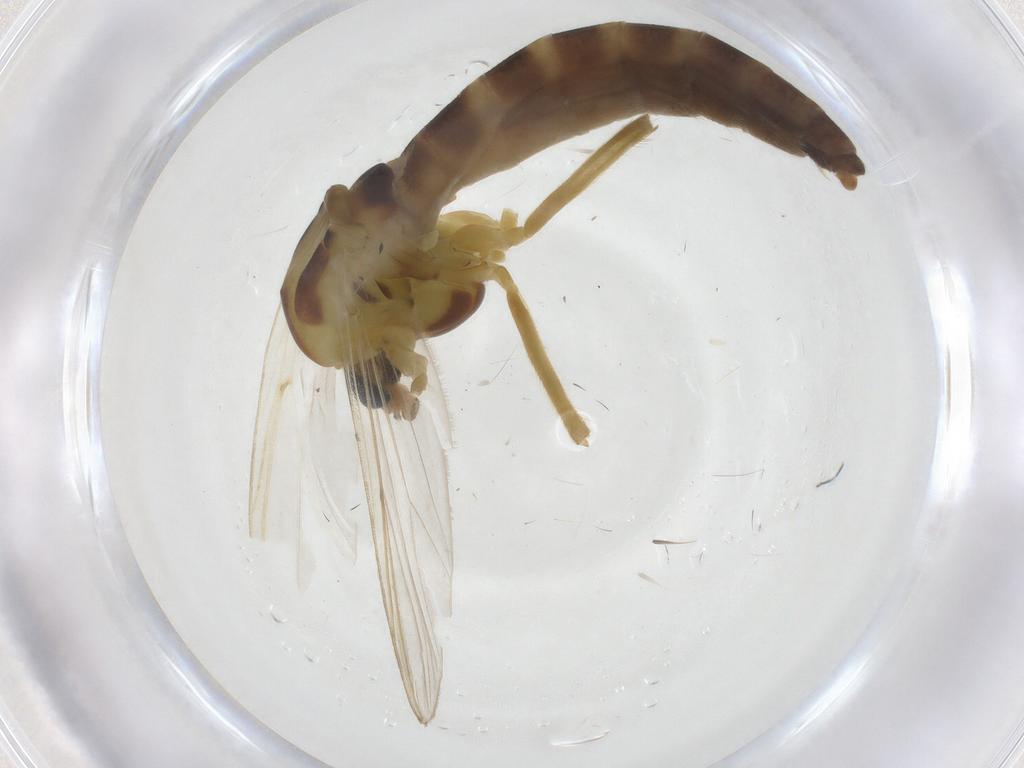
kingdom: Animalia
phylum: Arthropoda
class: Insecta
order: Diptera
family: Chironomidae
